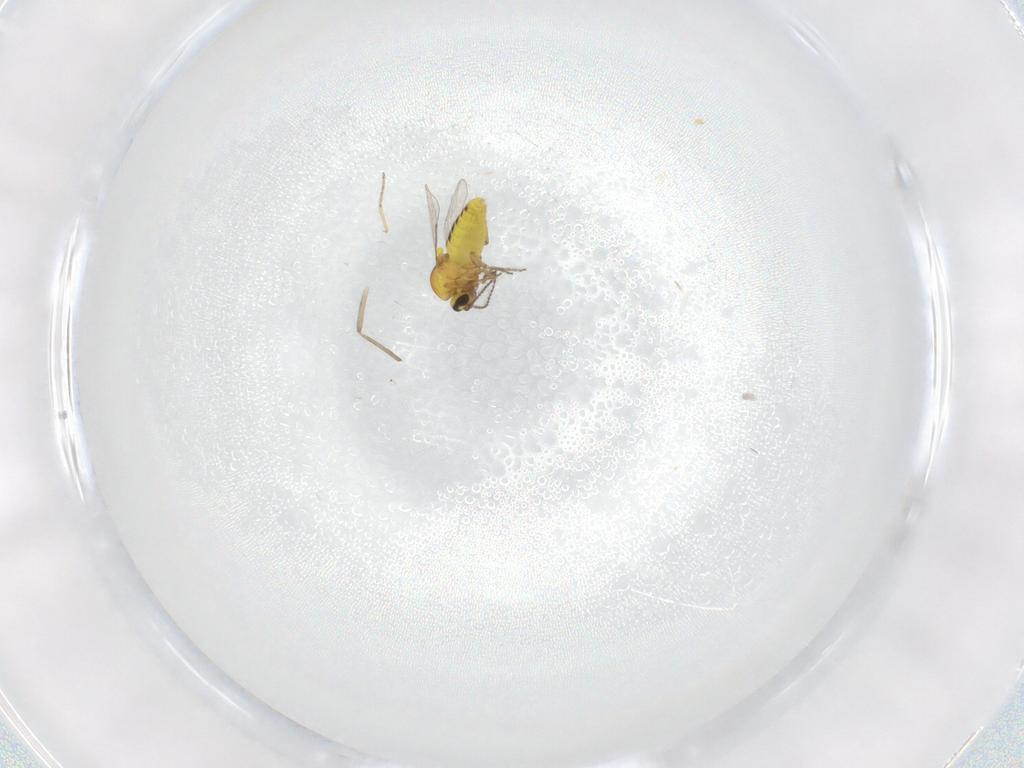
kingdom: Animalia
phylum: Arthropoda
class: Insecta
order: Diptera
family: Ceratopogonidae
